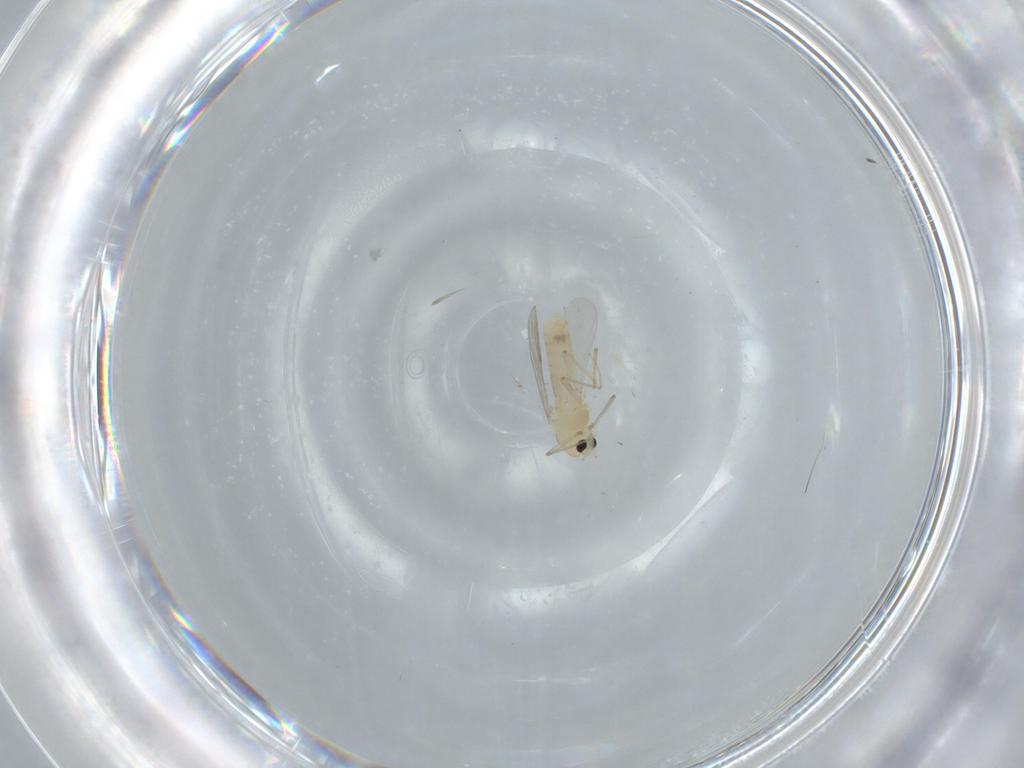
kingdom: Animalia
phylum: Arthropoda
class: Insecta
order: Diptera
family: Chironomidae
